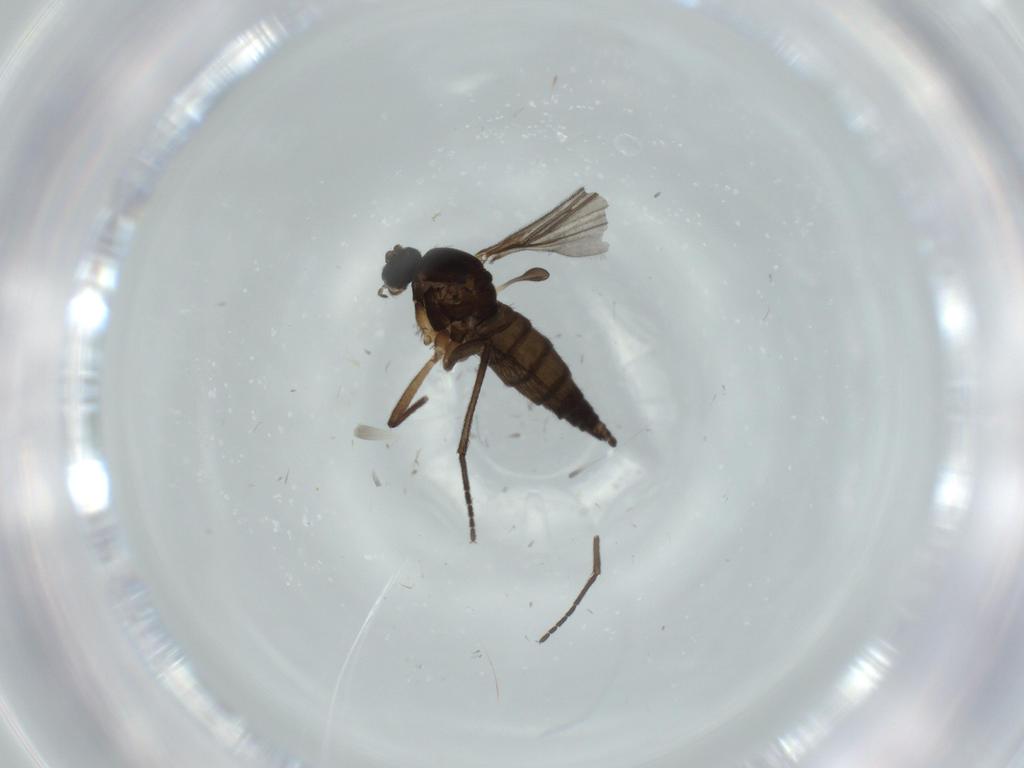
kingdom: Animalia
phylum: Arthropoda
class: Insecta
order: Diptera
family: Sciaridae
